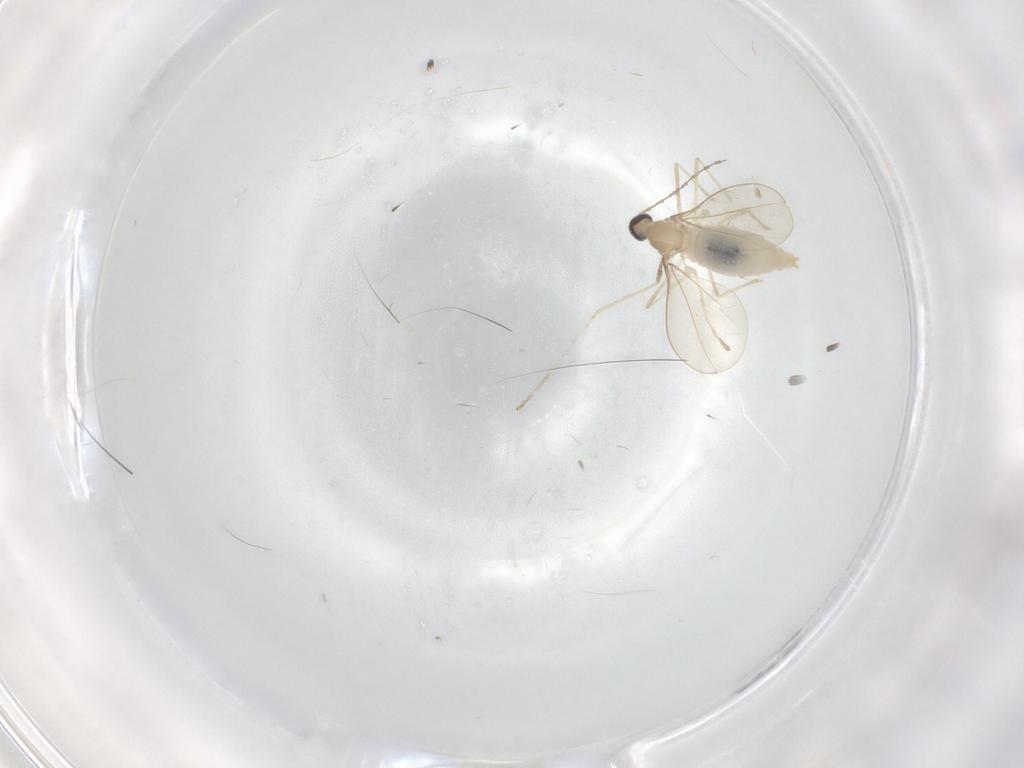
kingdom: Animalia
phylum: Arthropoda
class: Insecta
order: Diptera
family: Cecidomyiidae
